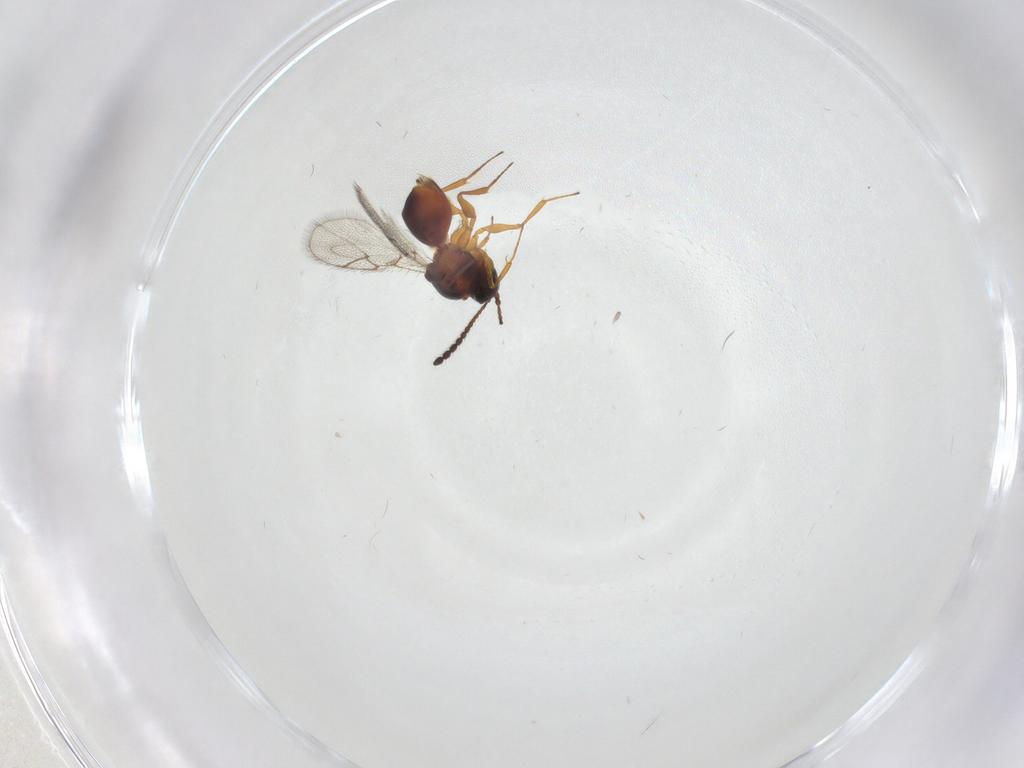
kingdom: Animalia
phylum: Arthropoda
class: Insecta
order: Hymenoptera
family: Figitidae
